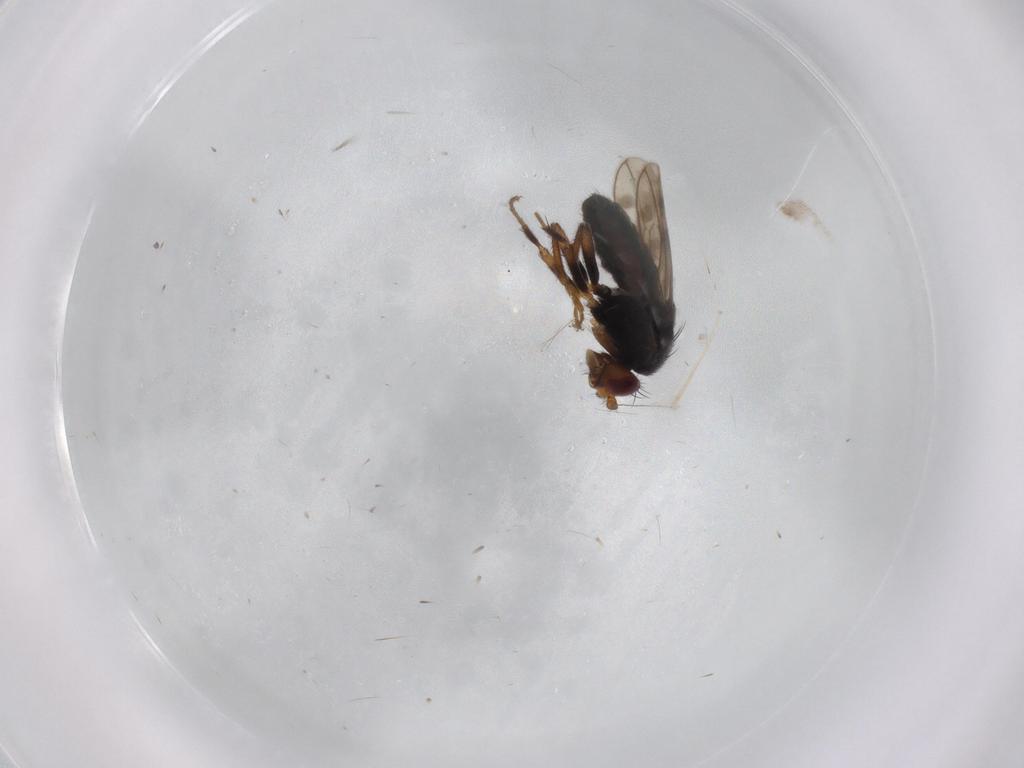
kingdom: Animalia
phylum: Arthropoda
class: Insecta
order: Diptera
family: Sphaeroceridae
